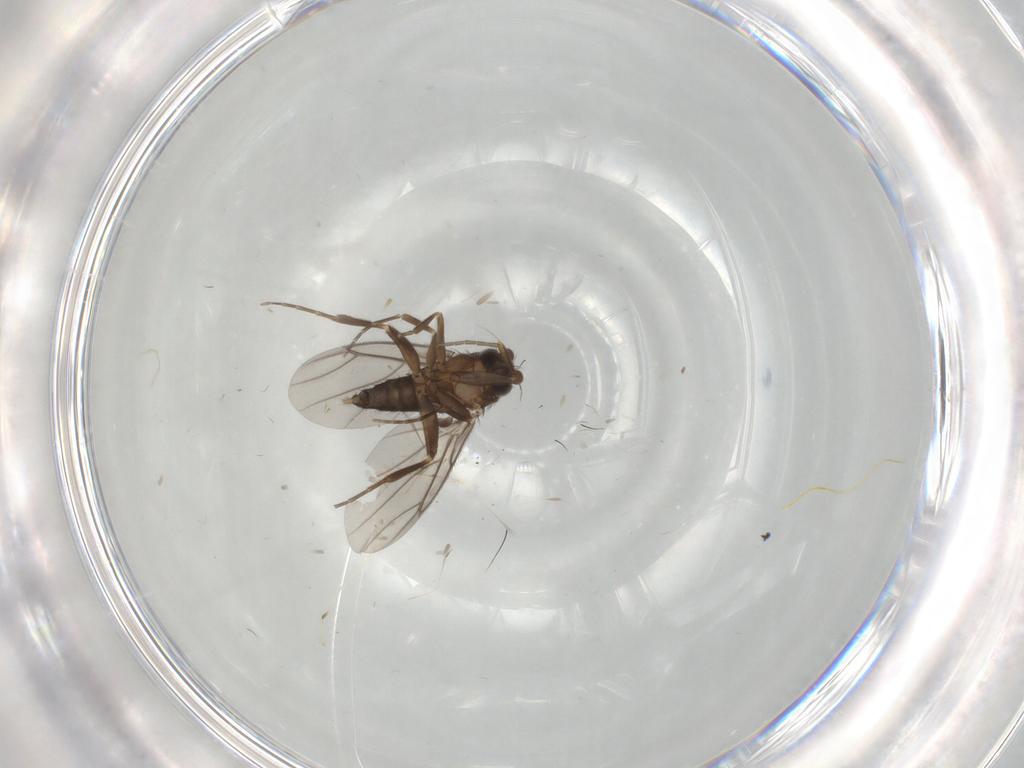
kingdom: Animalia
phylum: Arthropoda
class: Insecta
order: Diptera
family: Cecidomyiidae
